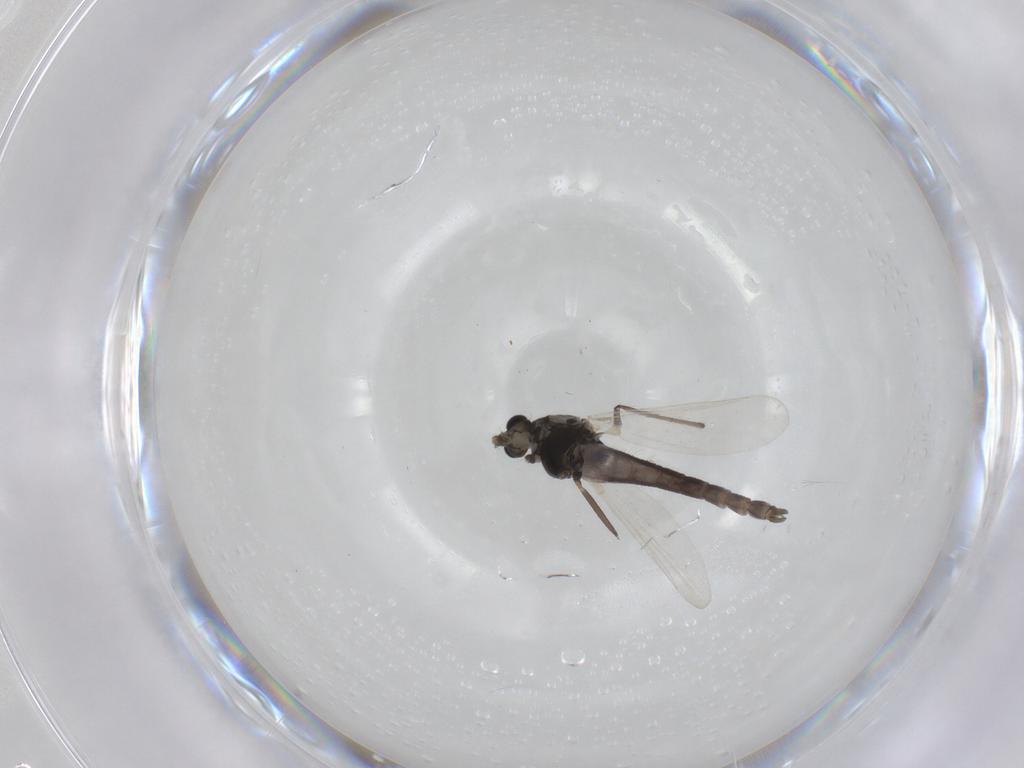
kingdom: Animalia
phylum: Arthropoda
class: Insecta
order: Diptera
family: Chironomidae
